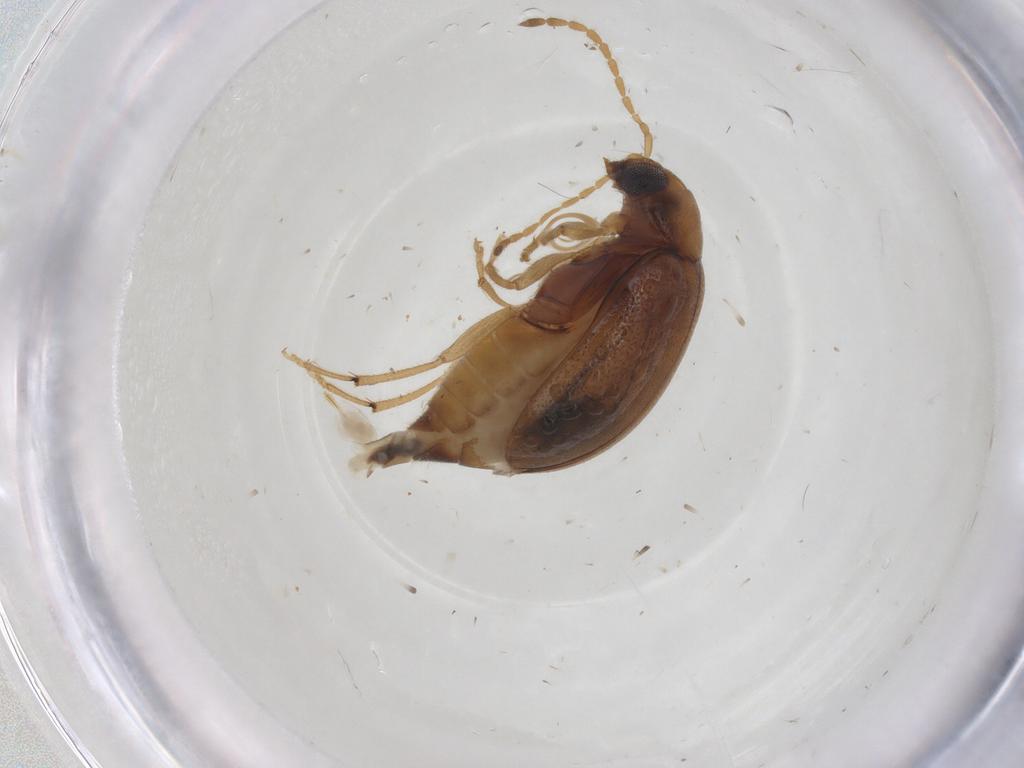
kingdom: Animalia
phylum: Arthropoda
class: Insecta
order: Coleoptera
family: Chrysomelidae
